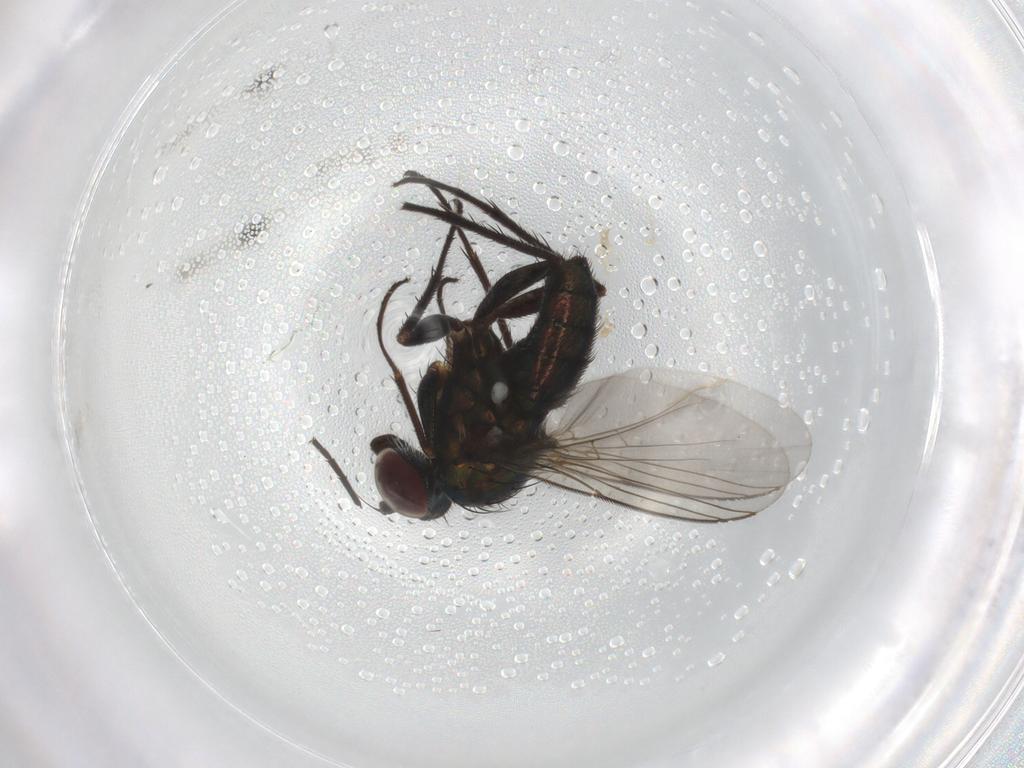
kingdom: Animalia
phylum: Arthropoda
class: Insecta
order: Diptera
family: Dolichopodidae
